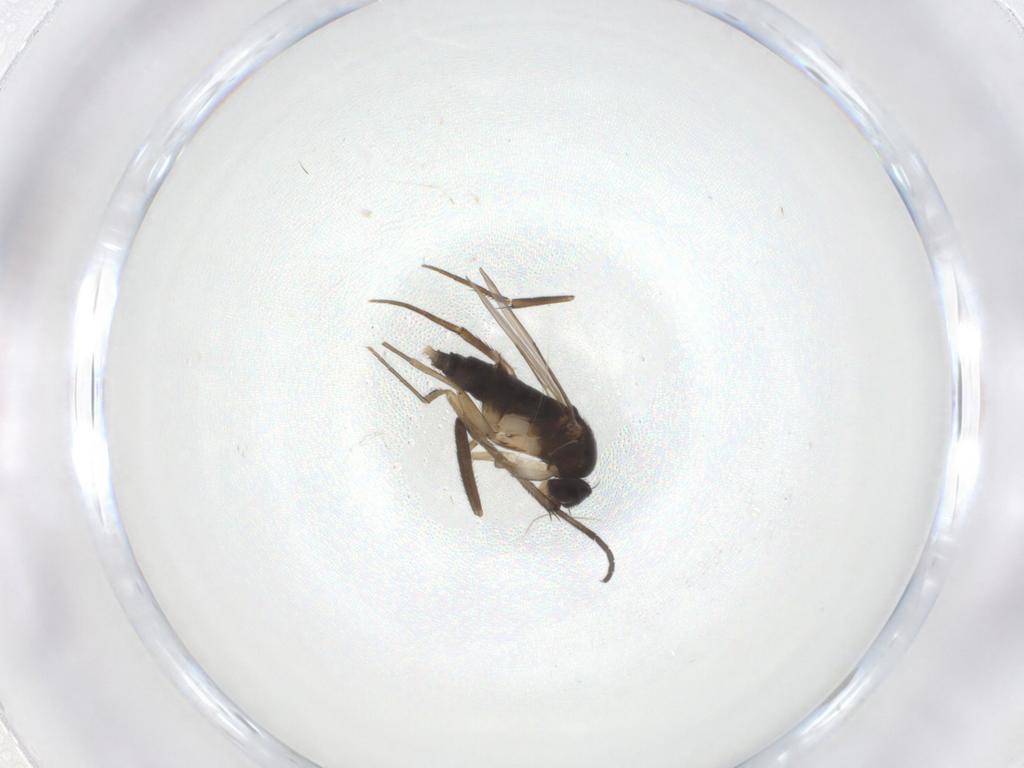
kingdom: Animalia
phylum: Arthropoda
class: Insecta
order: Diptera
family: Phoridae
